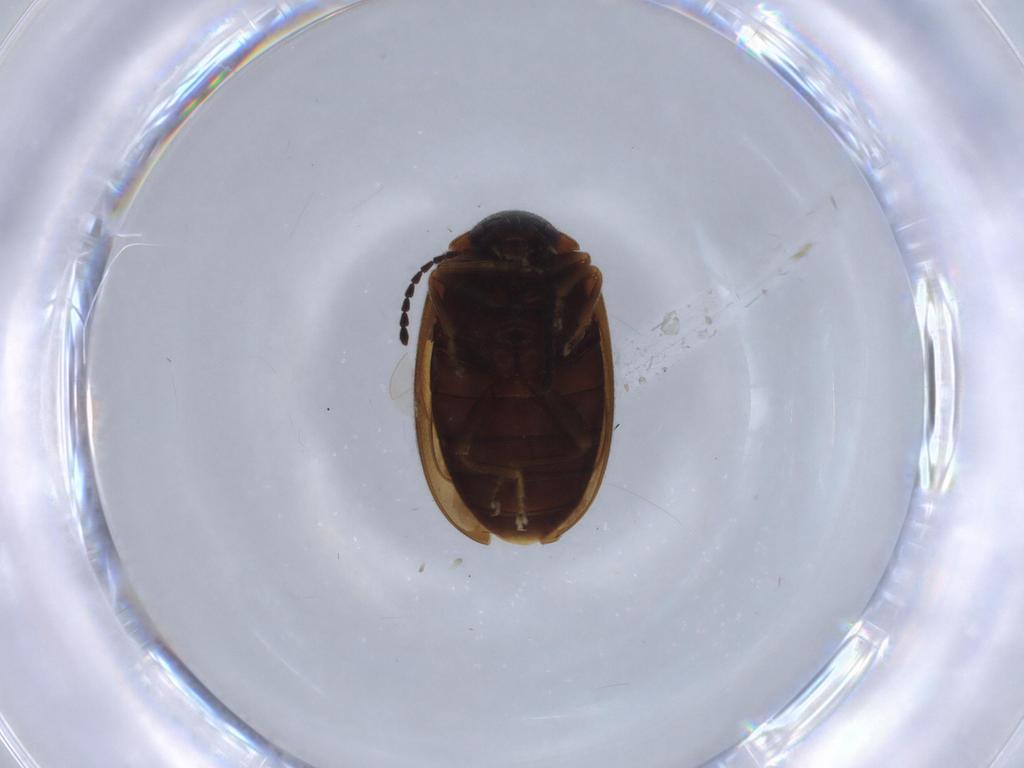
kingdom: Animalia
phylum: Arthropoda
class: Insecta
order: Coleoptera
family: Scirtidae
